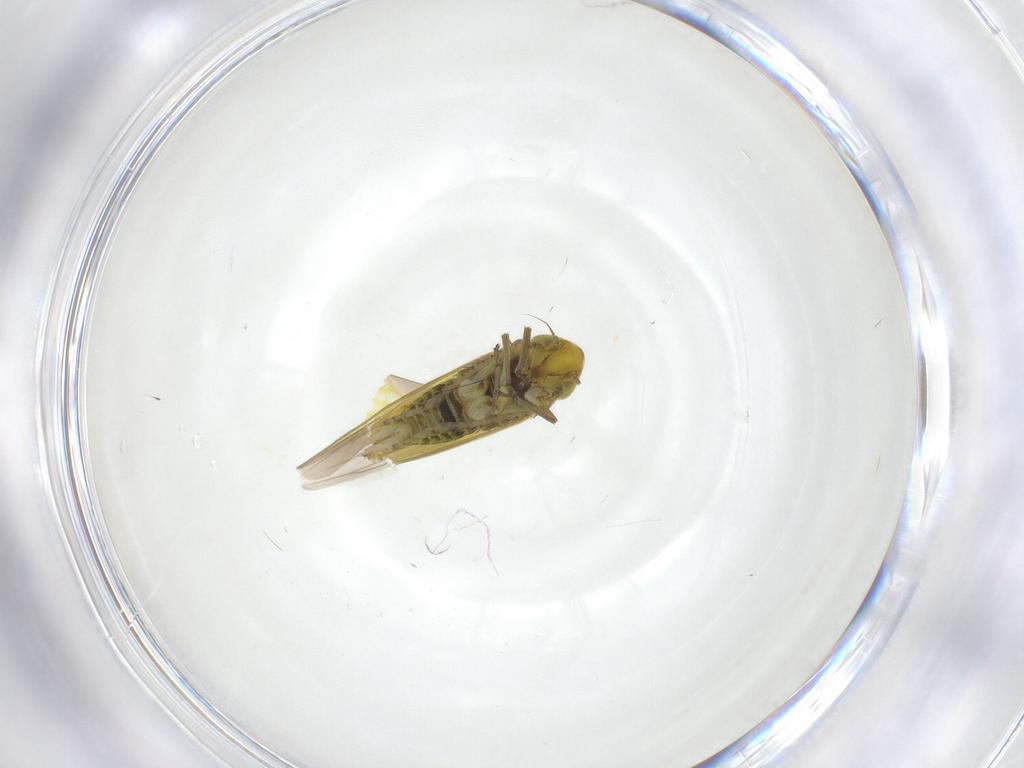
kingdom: Animalia
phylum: Arthropoda
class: Insecta
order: Hemiptera
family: Cicadellidae
